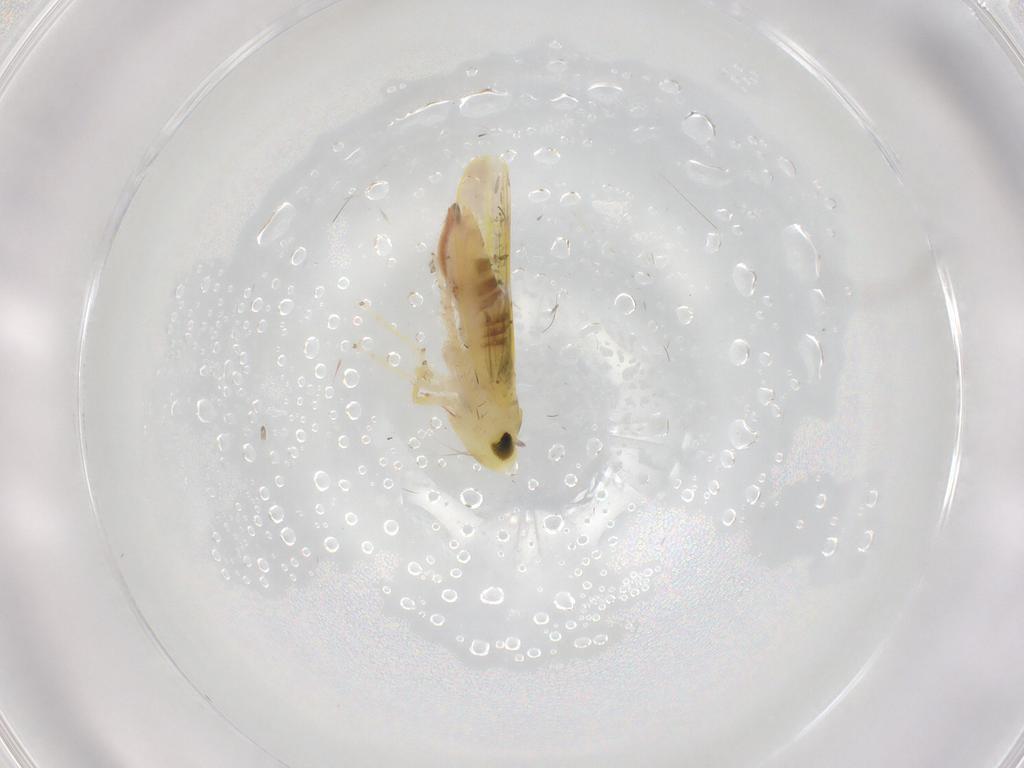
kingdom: Animalia
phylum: Arthropoda
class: Insecta
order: Hemiptera
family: Cicadellidae
